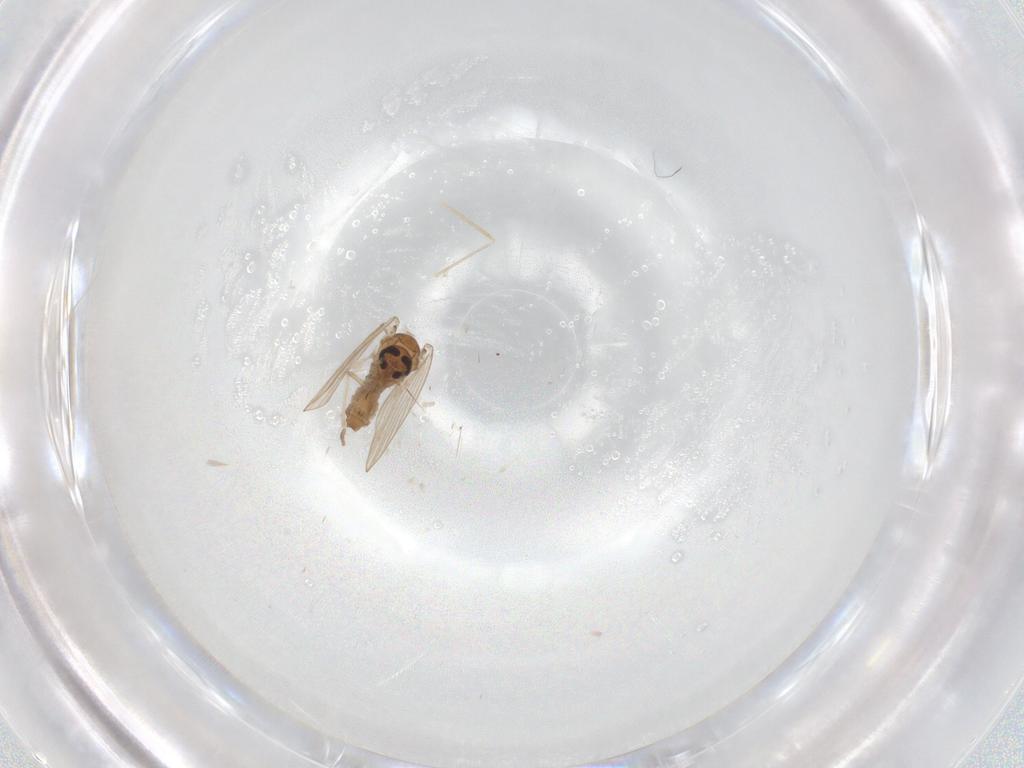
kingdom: Animalia
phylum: Arthropoda
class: Insecta
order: Diptera
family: Psychodidae
